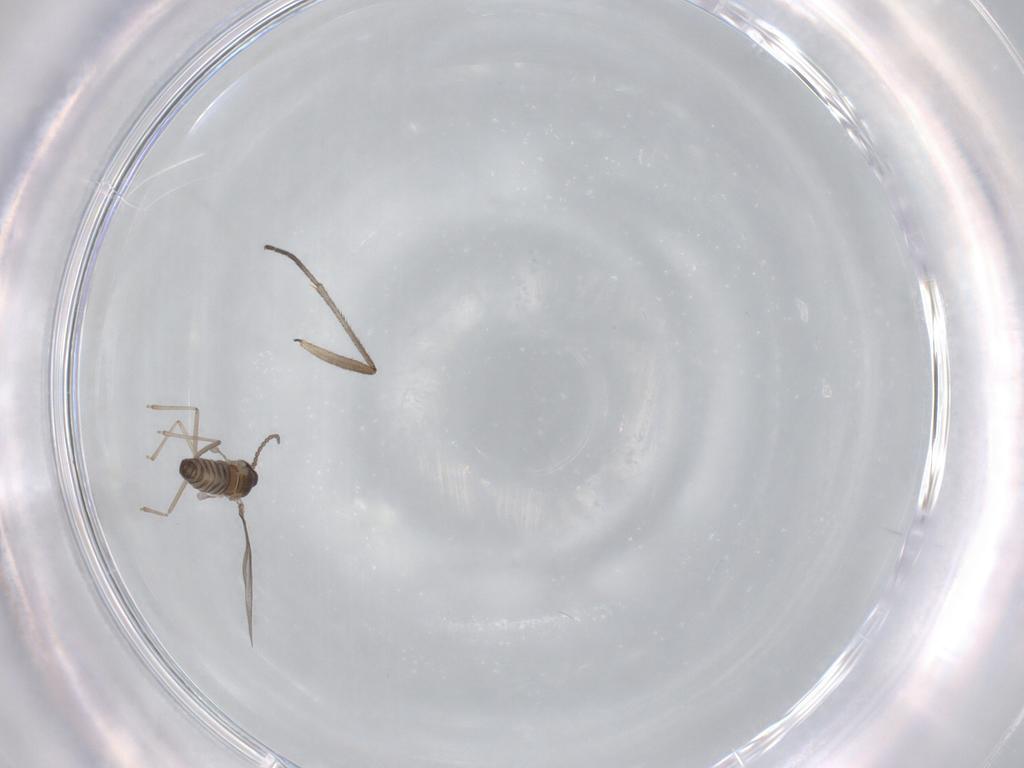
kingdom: Animalia
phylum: Arthropoda
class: Insecta
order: Diptera
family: Cecidomyiidae
